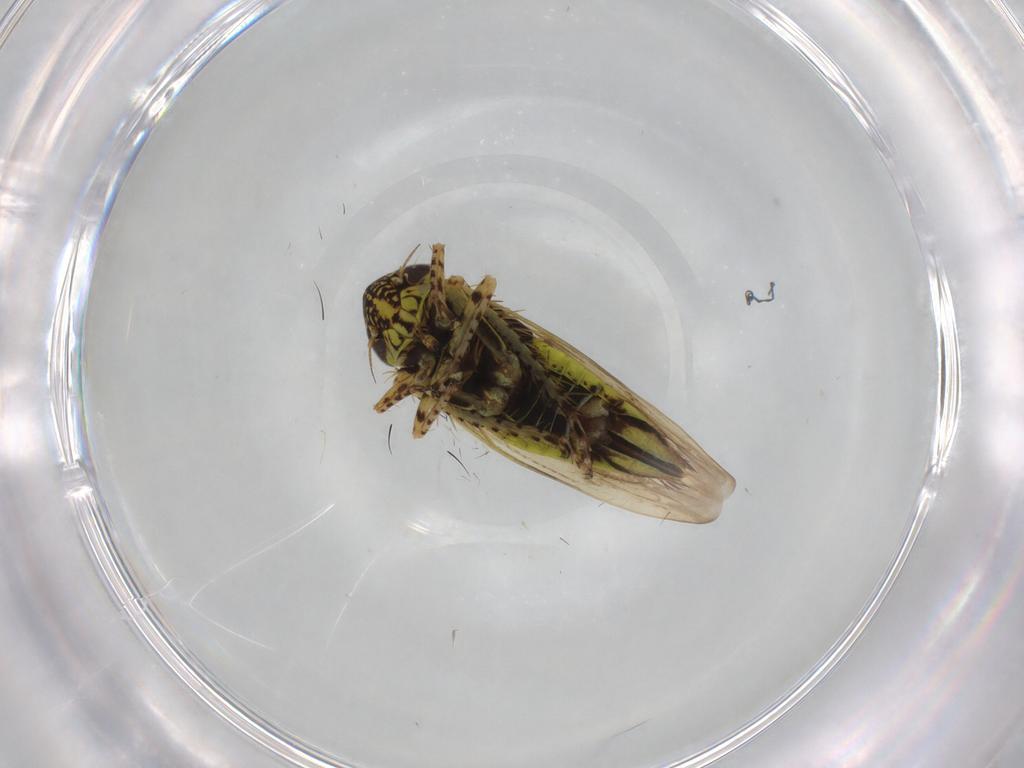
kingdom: Animalia
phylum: Arthropoda
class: Insecta
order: Hemiptera
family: Cicadellidae
